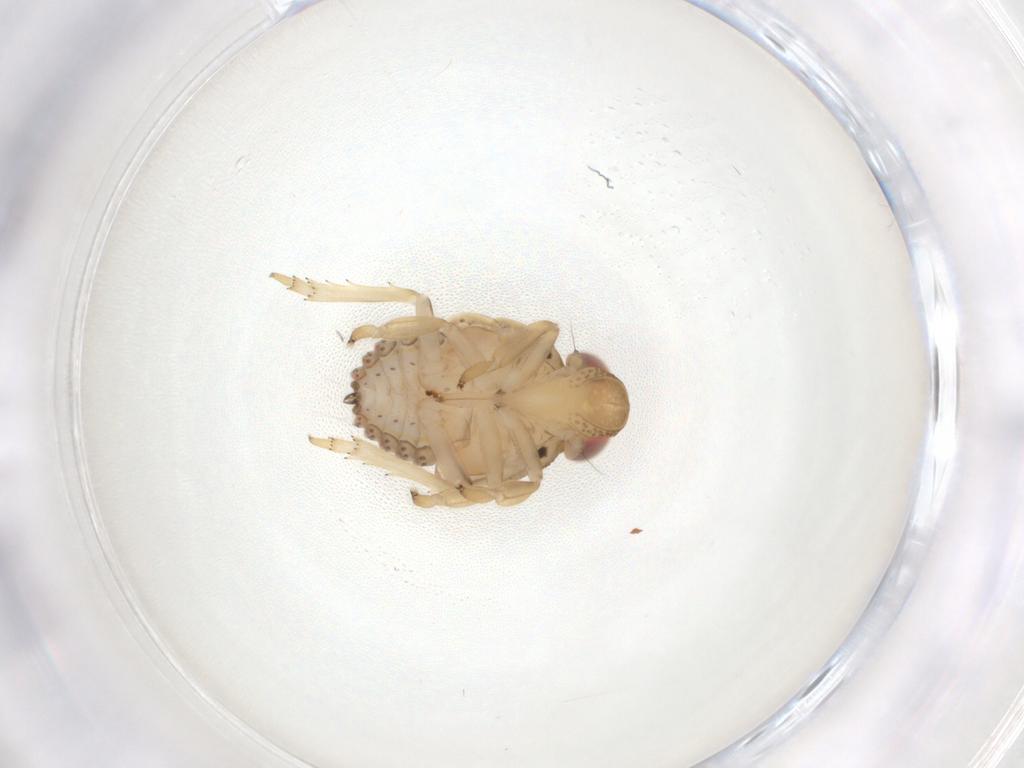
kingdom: Animalia
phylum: Arthropoda
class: Insecta
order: Hemiptera
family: Issidae
